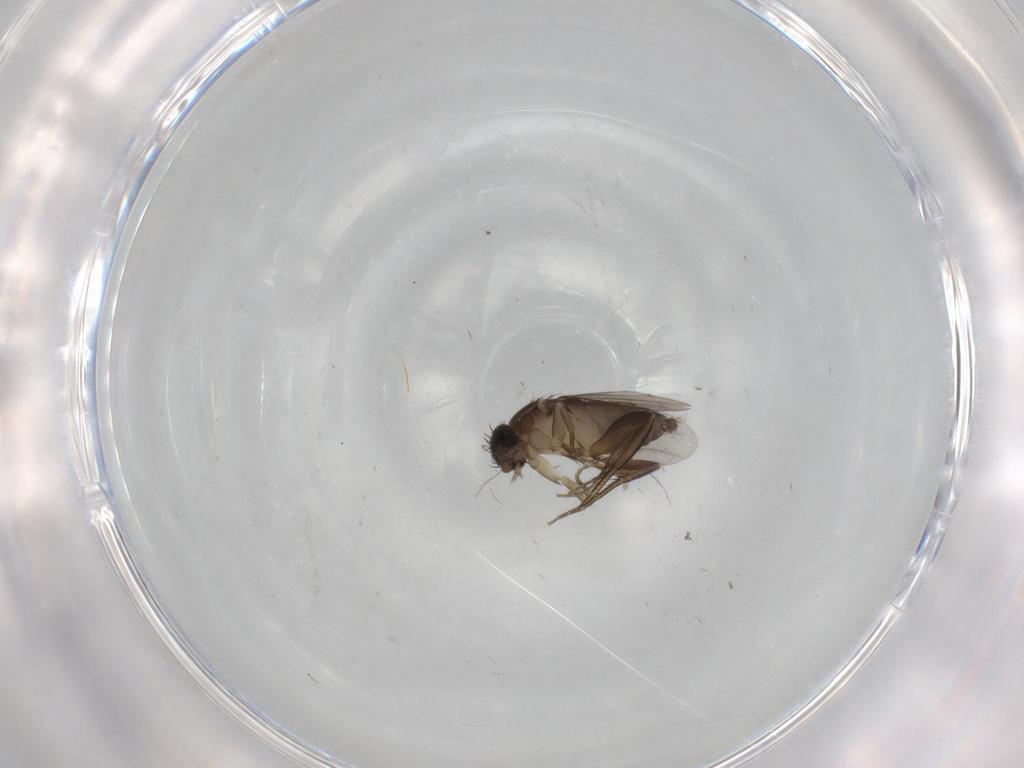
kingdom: Animalia
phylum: Arthropoda
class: Insecta
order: Diptera
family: Phoridae
